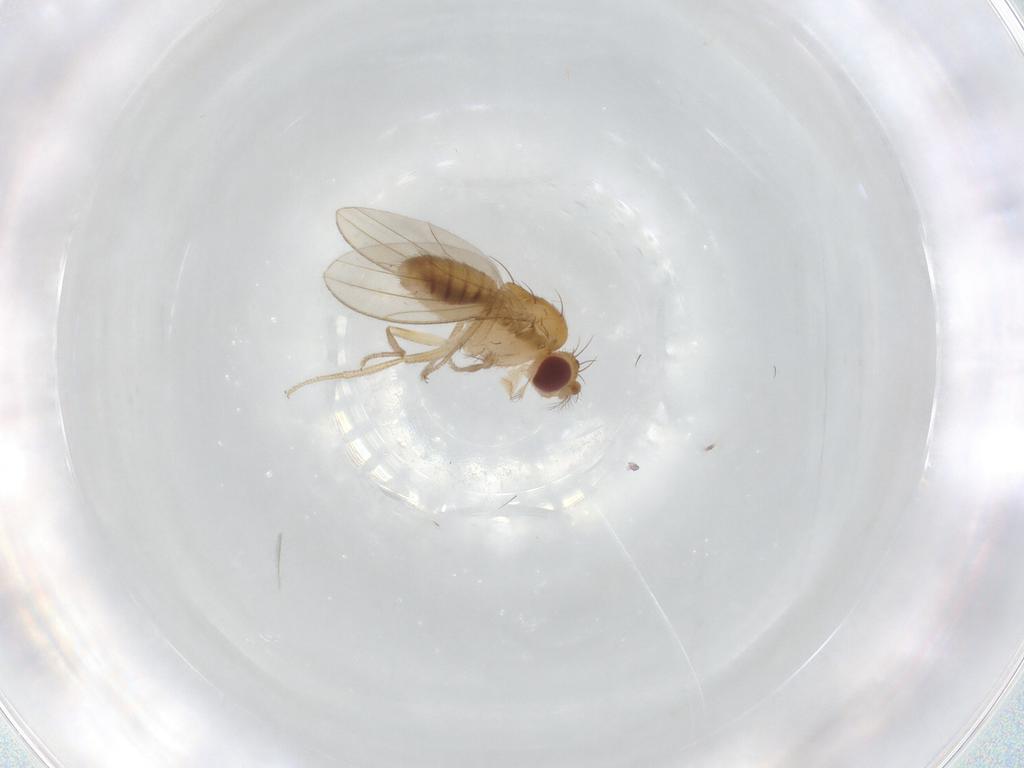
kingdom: Animalia
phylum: Arthropoda
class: Insecta
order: Diptera
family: Drosophilidae
